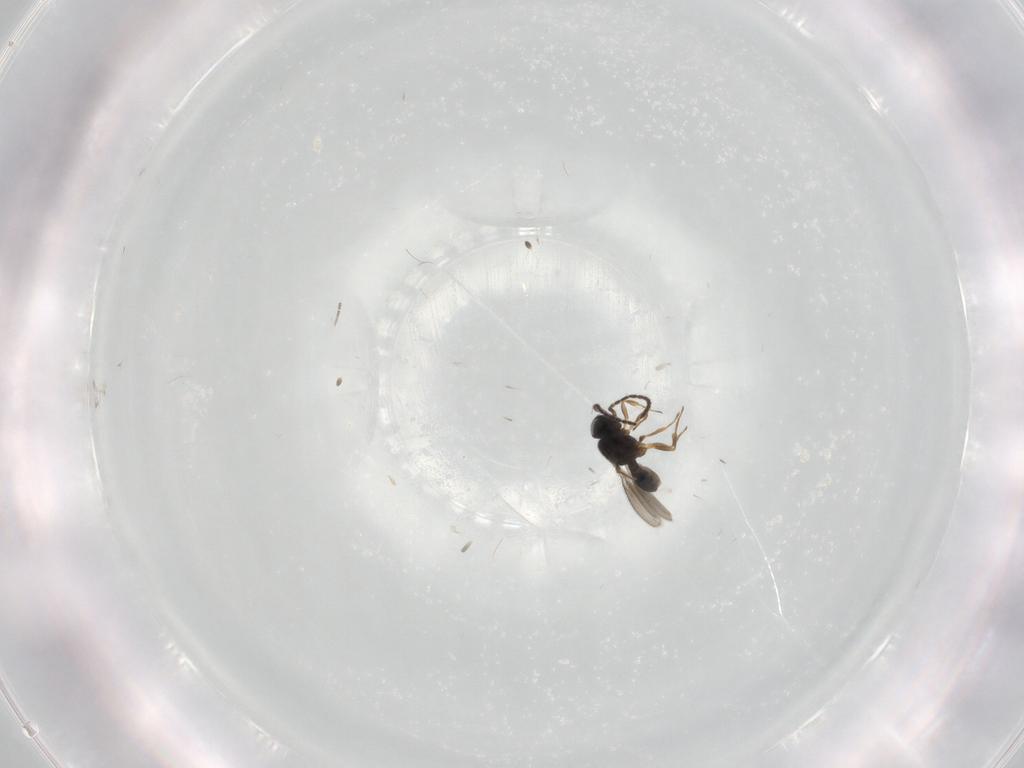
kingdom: Animalia
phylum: Arthropoda
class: Insecta
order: Hymenoptera
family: Scelionidae
